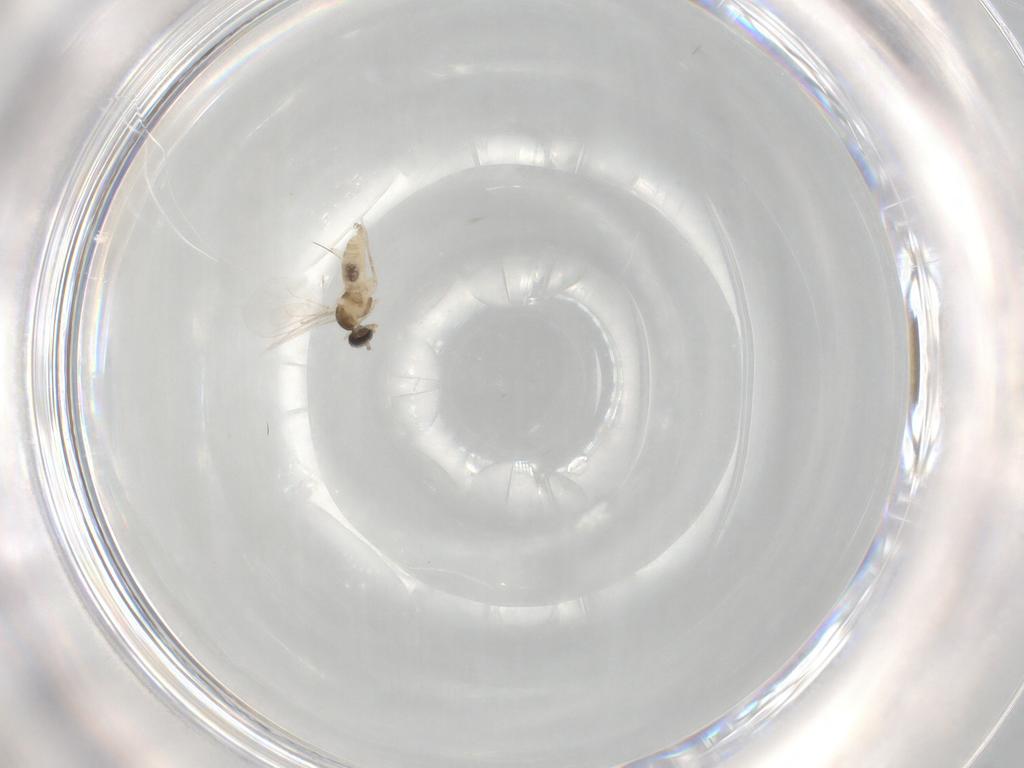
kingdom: Animalia
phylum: Arthropoda
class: Insecta
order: Diptera
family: Cecidomyiidae
